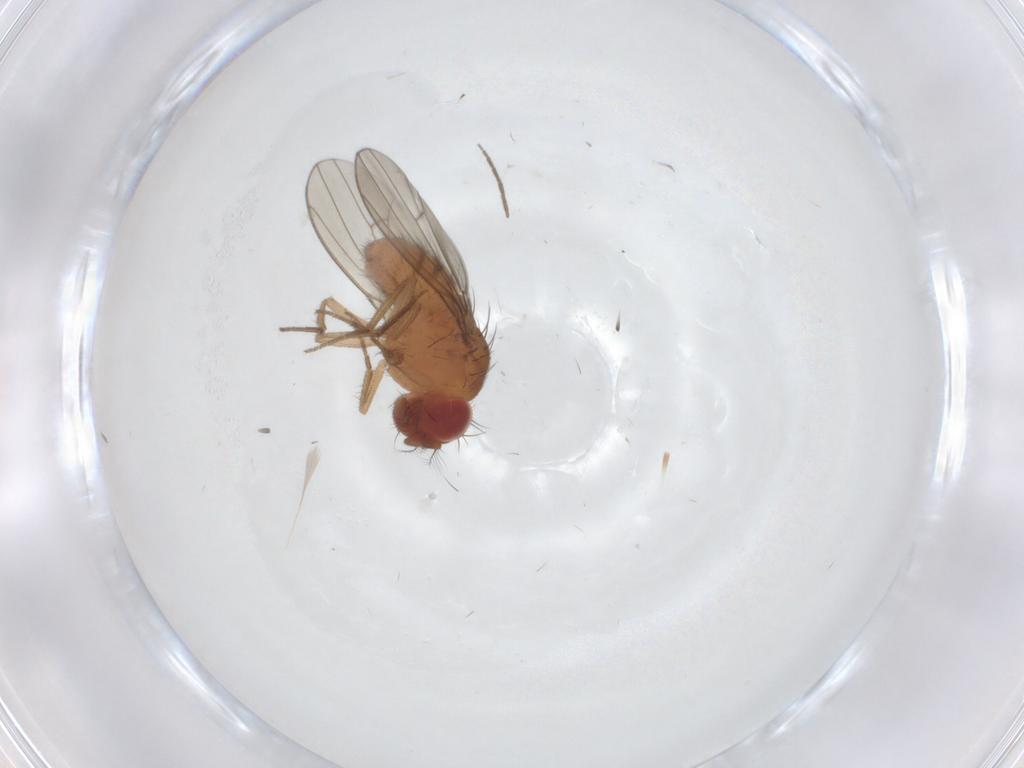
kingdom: Animalia
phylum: Arthropoda
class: Insecta
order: Diptera
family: Drosophilidae
